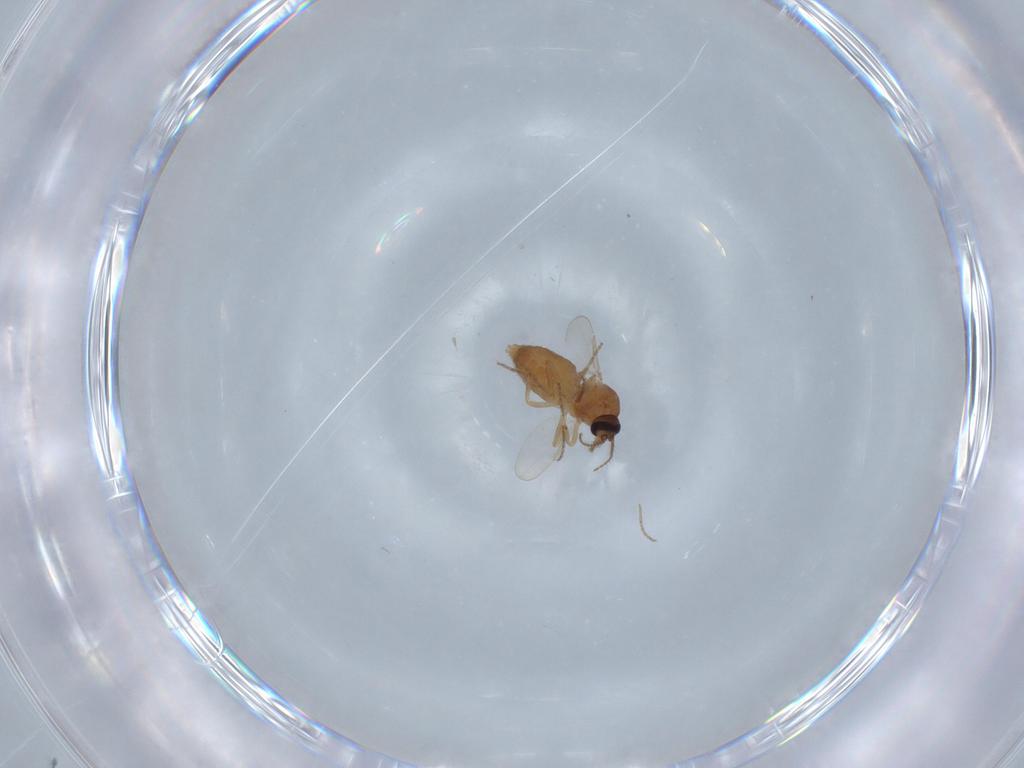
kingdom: Animalia
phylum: Arthropoda
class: Insecta
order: Diptera
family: Ceratopogonidae
